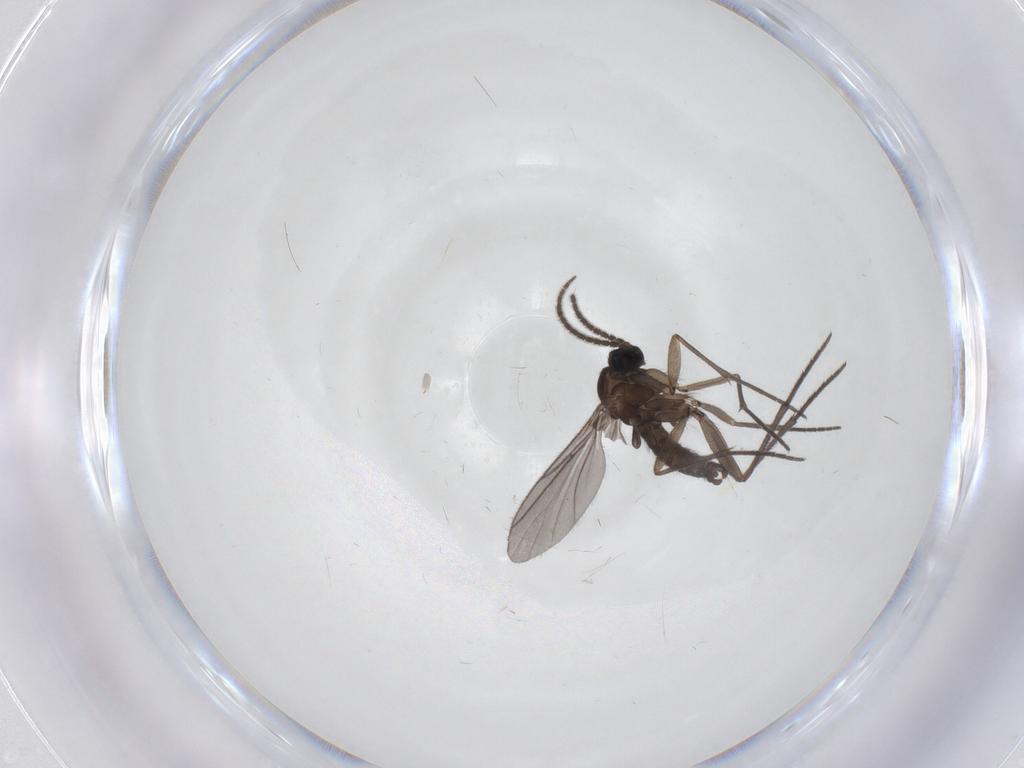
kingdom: Animalia
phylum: Arthropoda
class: Insecta
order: Diptera
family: Sciaridae
